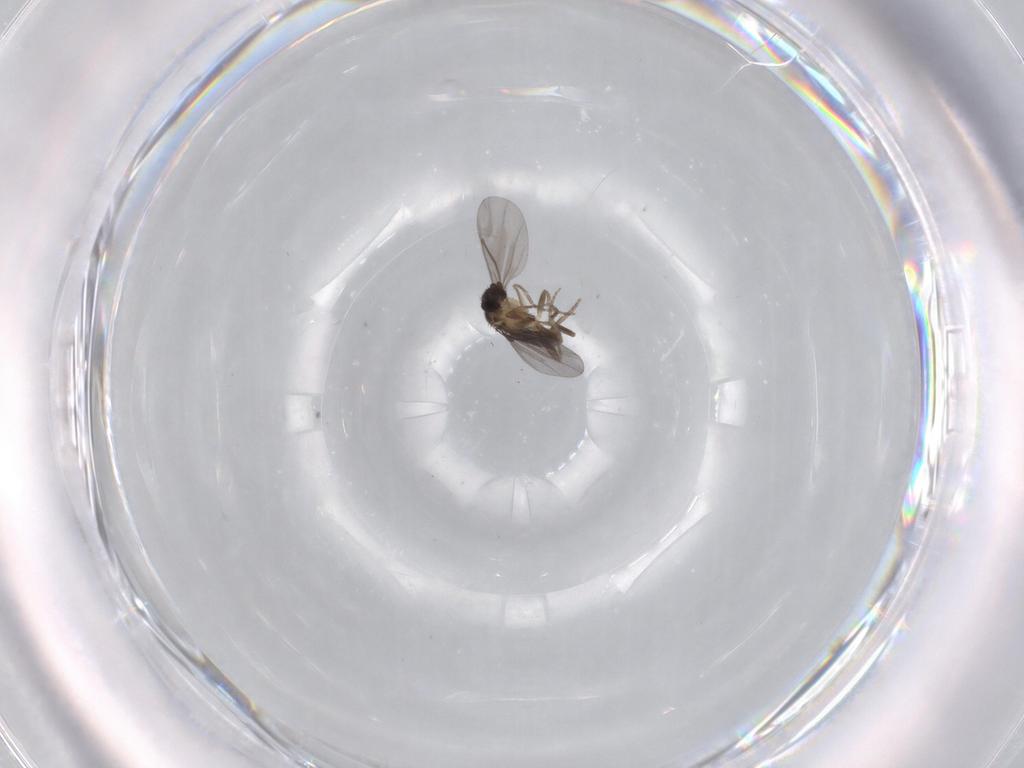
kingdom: Animalia
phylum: Arthropoda
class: Insecta
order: Diptera
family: Phoridae
